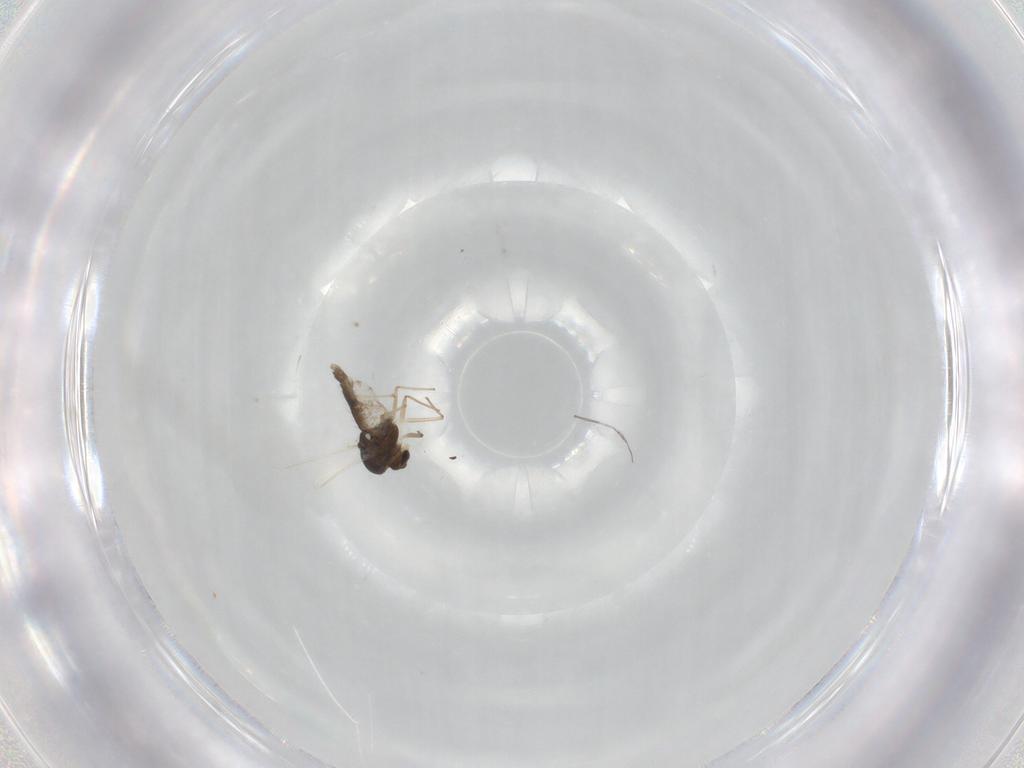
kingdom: Animalia
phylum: Arthropoda
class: Insecta
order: Diptera
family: Chironomidae
